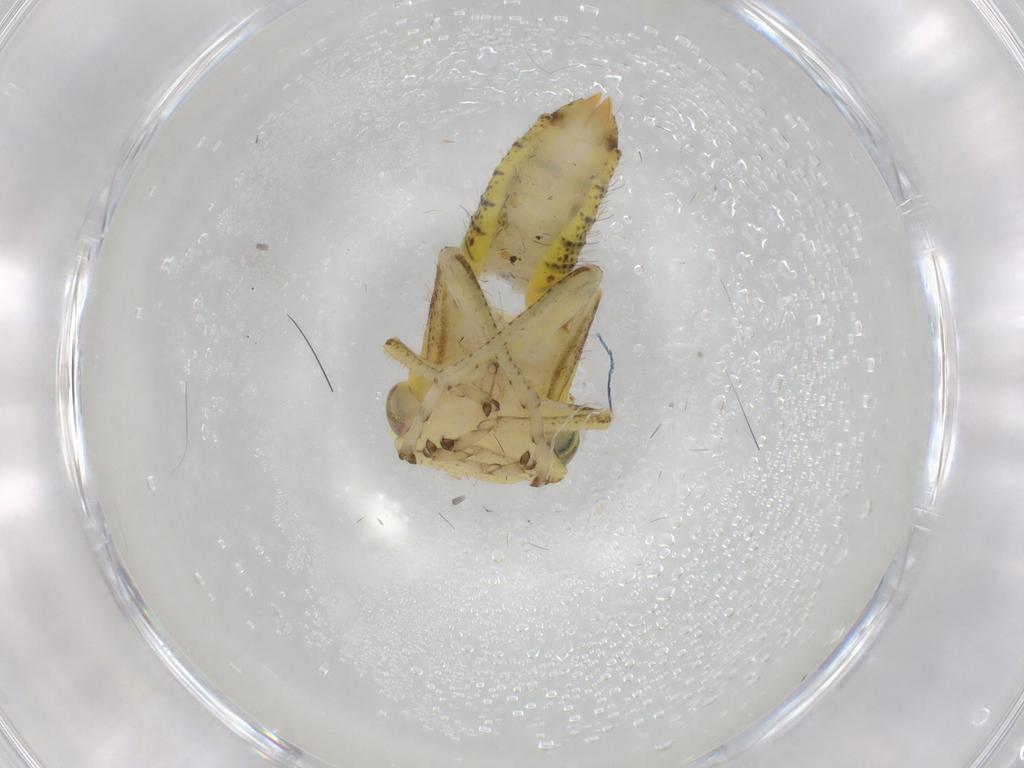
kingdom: Animalia
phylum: Arthropoda
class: Insecta
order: Hemiptera
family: Cicadellidae
